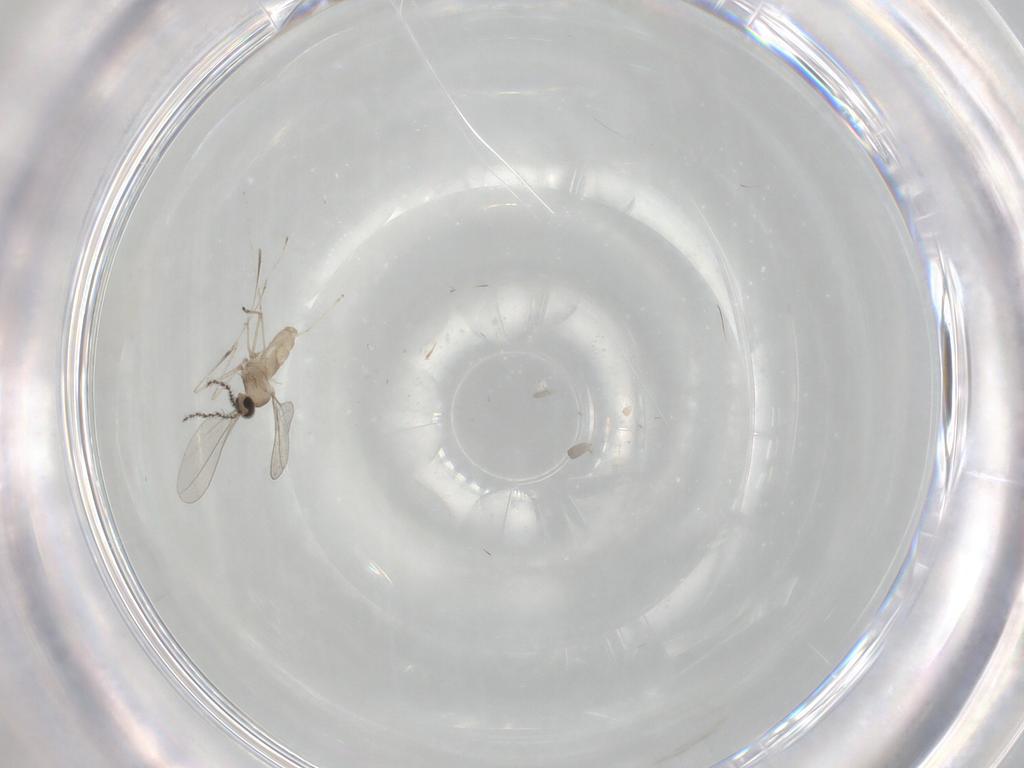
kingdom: Animalia
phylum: Arthropoda
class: Insecta
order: Diptera
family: Cecidomyiidae
